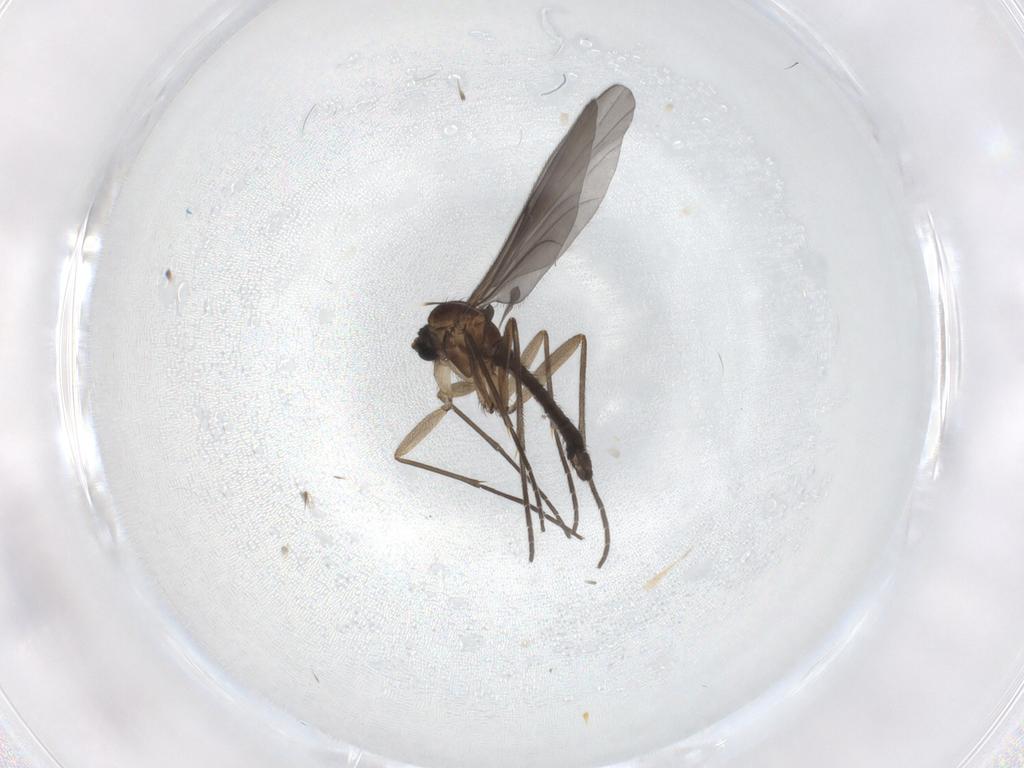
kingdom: Animalia
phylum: Arthropoda
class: Insecta
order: Diptera
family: Sciaridae
